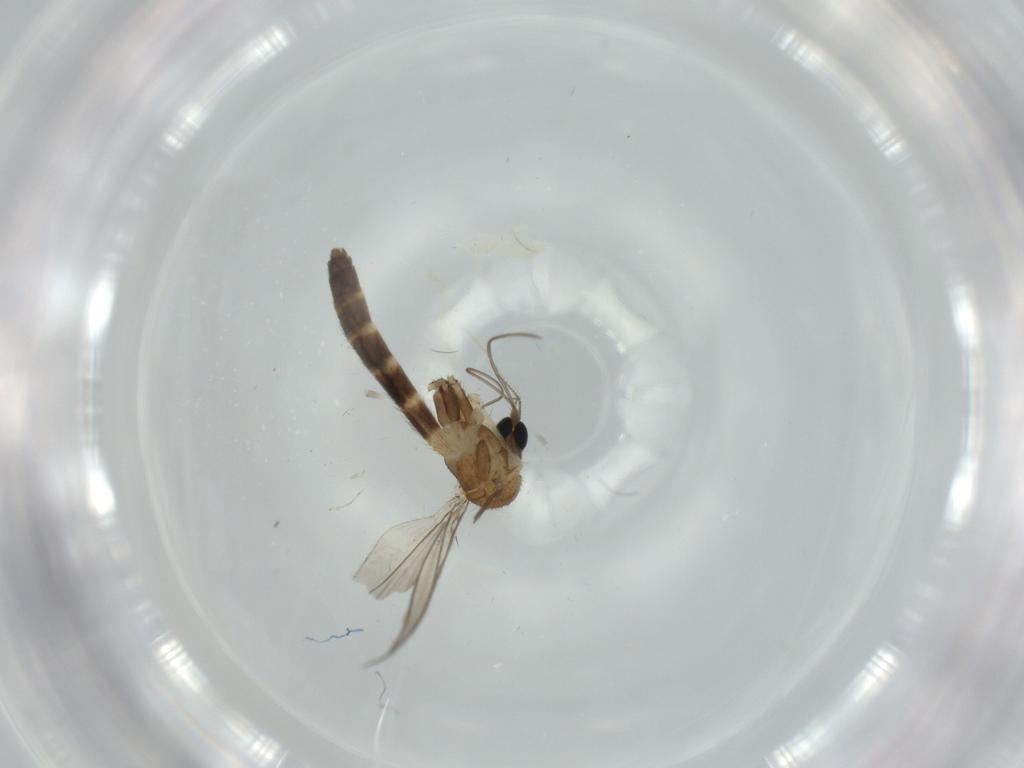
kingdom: Animalia
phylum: Arthropoda
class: Insecta
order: Diptera
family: Keroplatidae
